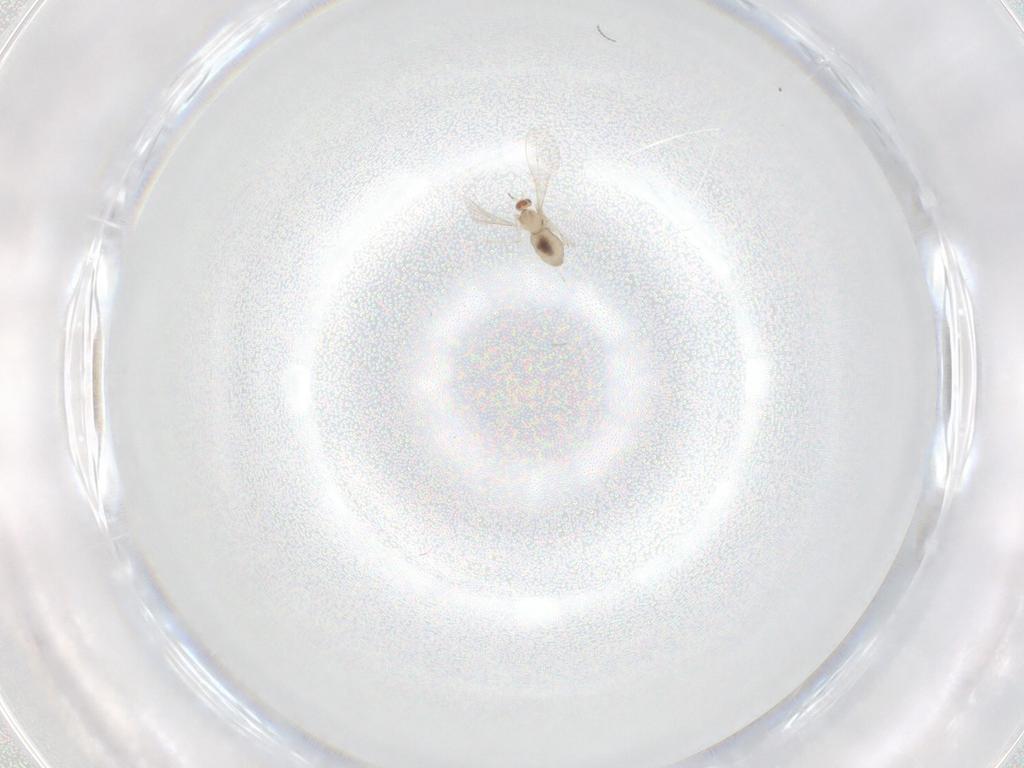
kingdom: Animalia
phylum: Arthropoda
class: Insecta
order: Diptera
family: Cecidomyiidae
